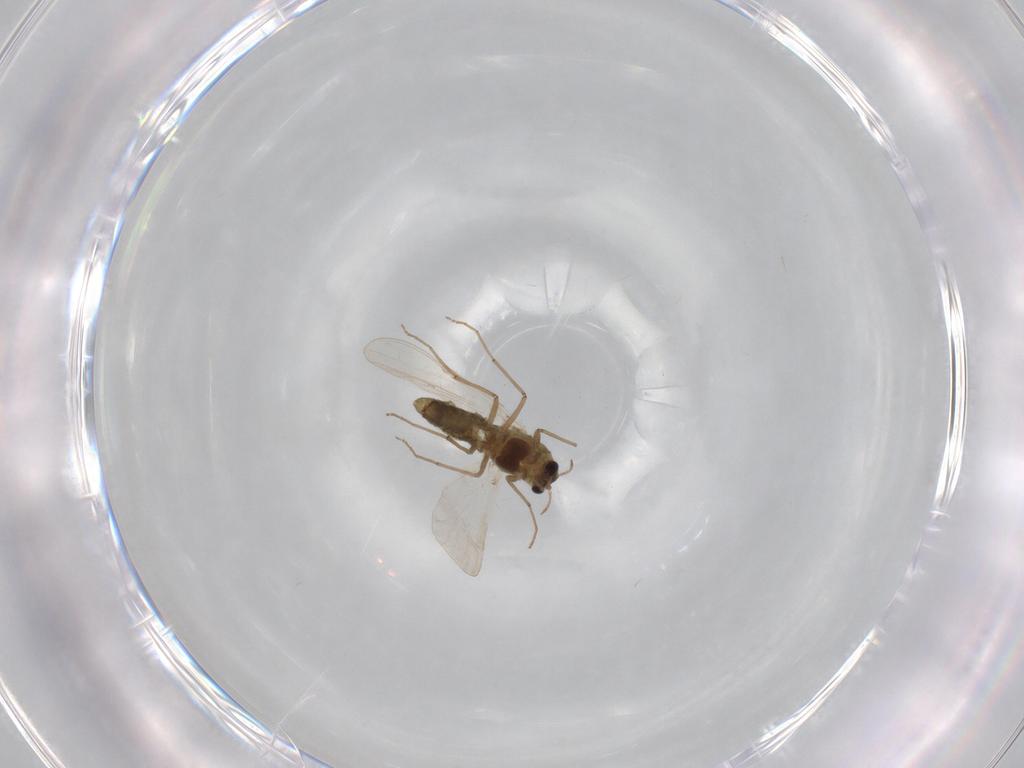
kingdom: Animalia
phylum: Arthropoda
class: Insecta
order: Diptera
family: Chironomidae
